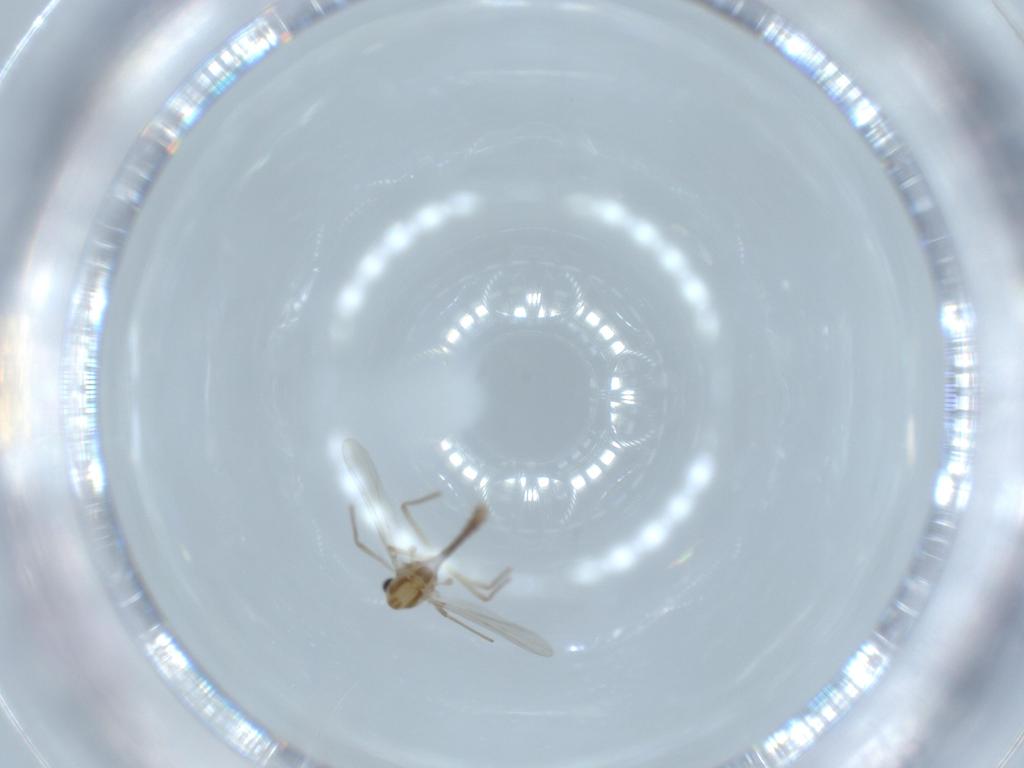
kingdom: Animalia
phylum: Arthropoda
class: Insecta
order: Diptera
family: Chironomidae
